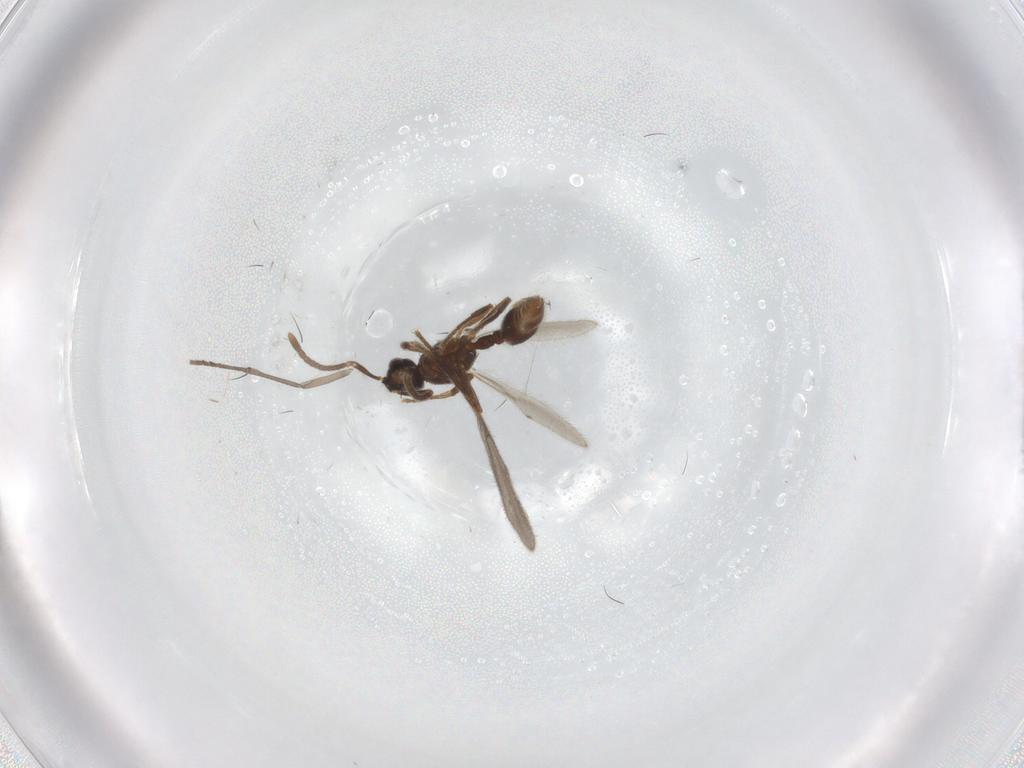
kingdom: Animalia
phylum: Arthropoda
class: Insecta
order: Hymenoptera
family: Formicidae
